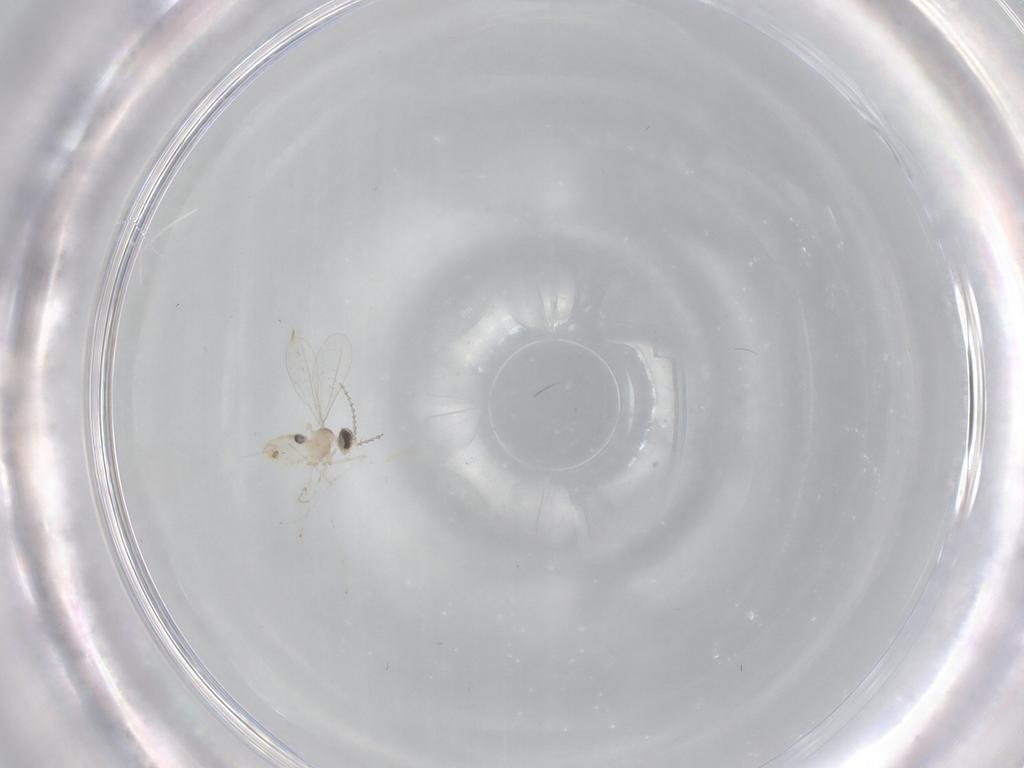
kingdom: Animalia
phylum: Arthropoda
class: Insecta
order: Diptera
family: Cecidomyiidae
